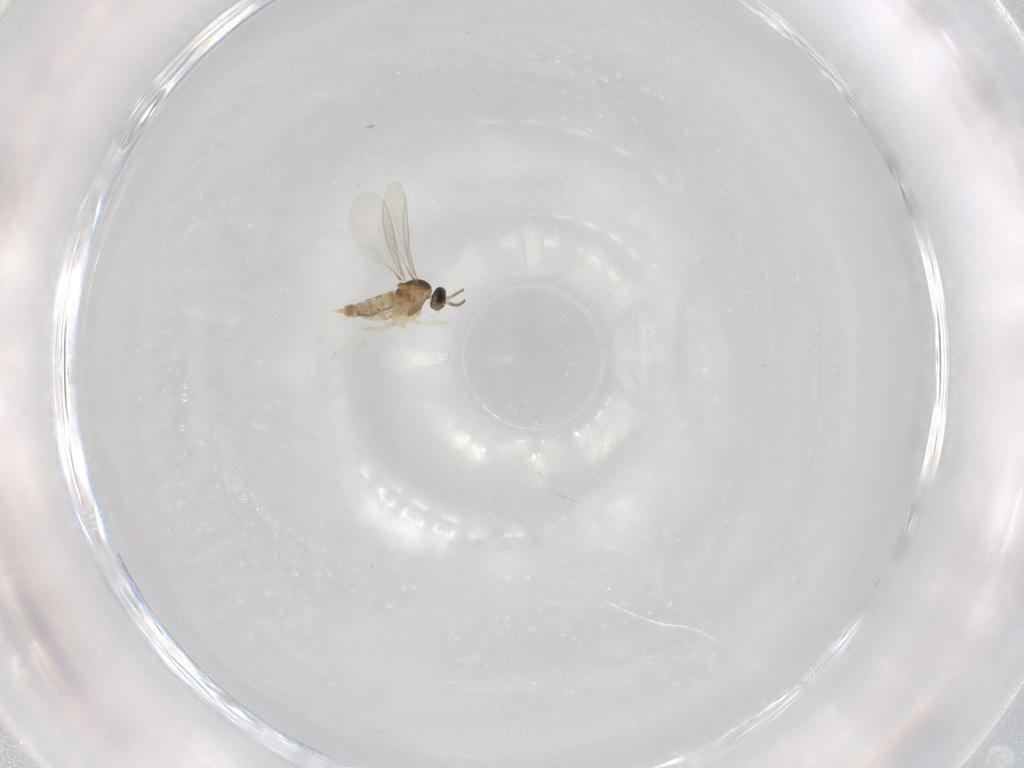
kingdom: Animalia
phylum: Arthropoda
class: Insecta
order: Diptera
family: Cecidomyiidae
